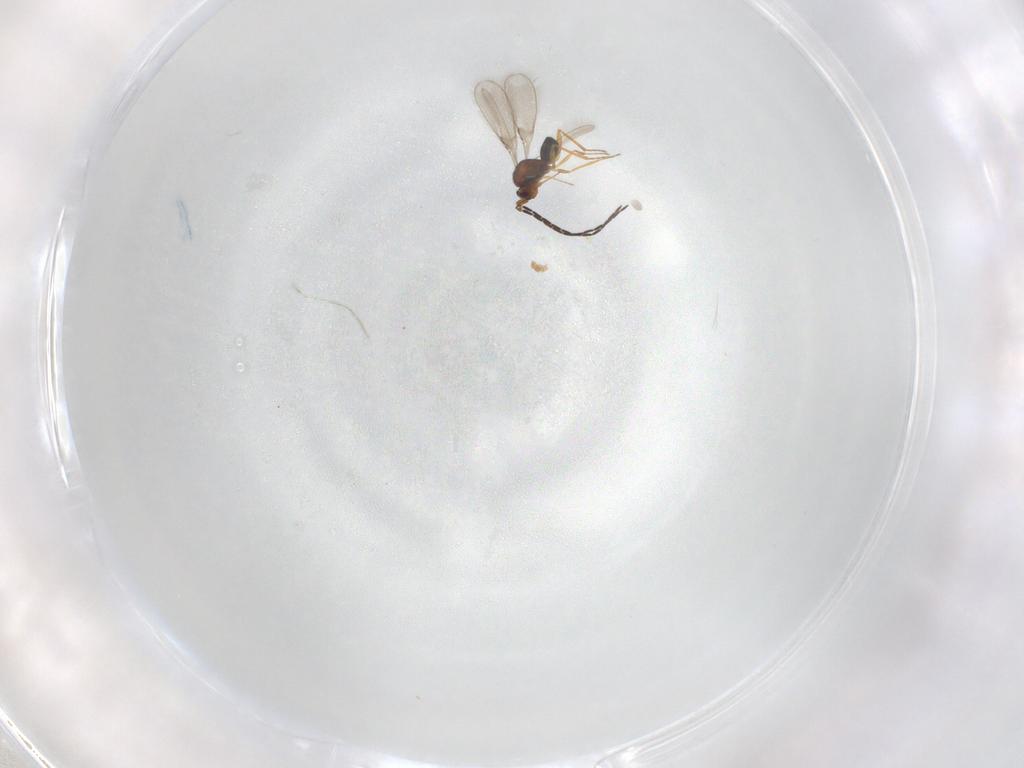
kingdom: Animalia
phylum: Arthropoda
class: Insecta
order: Hymenoptera
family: Mymaridae
